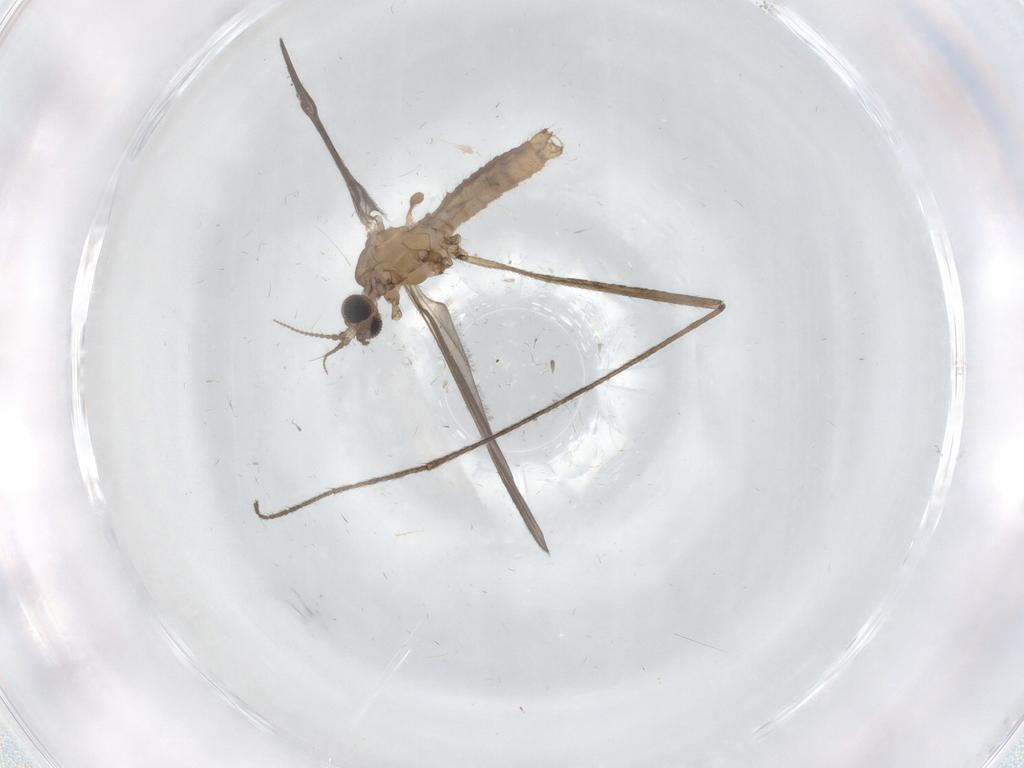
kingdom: Animalia
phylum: Arthropoda
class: Insecta
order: Diptera
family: Limoniidae
